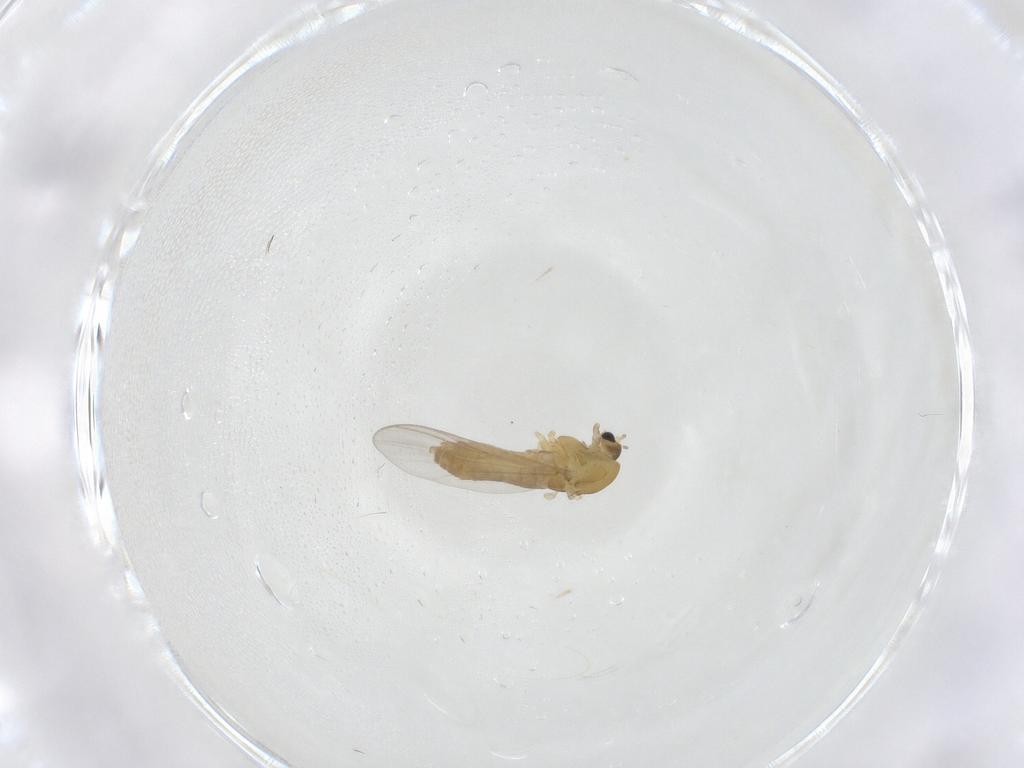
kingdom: Animalia
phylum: Arthropoda
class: Insecta
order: Diptera
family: Chironomidae
